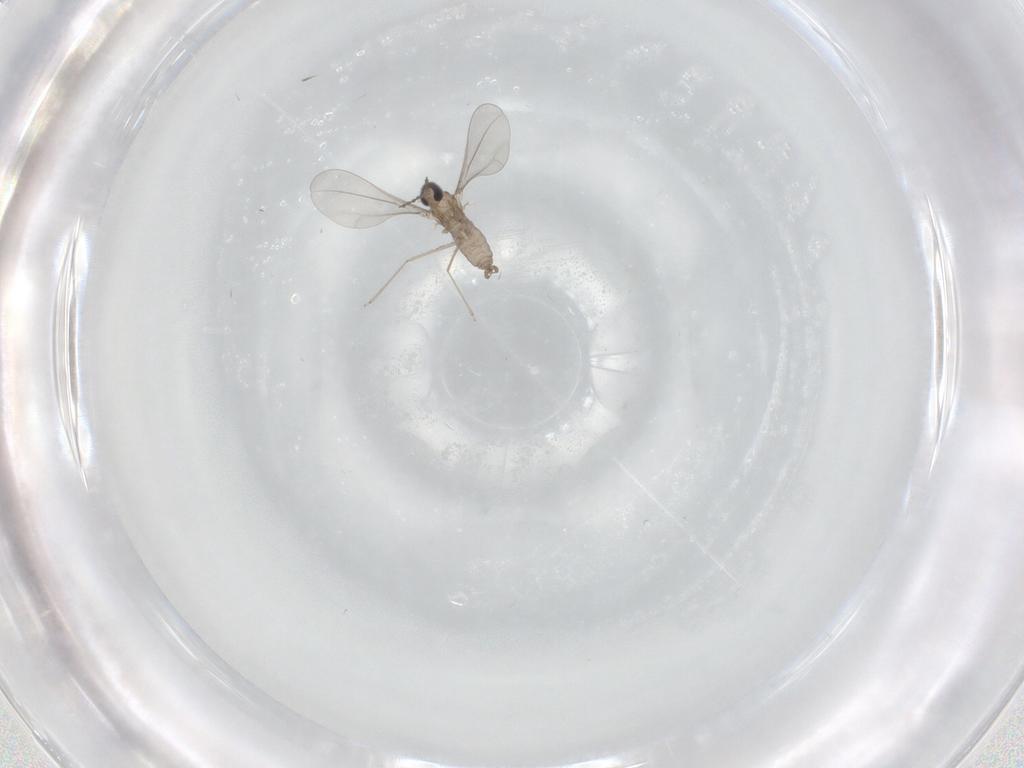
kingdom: Animalia
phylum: Arthropoda
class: Insecta
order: Diptera
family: Cecidomyiidae
